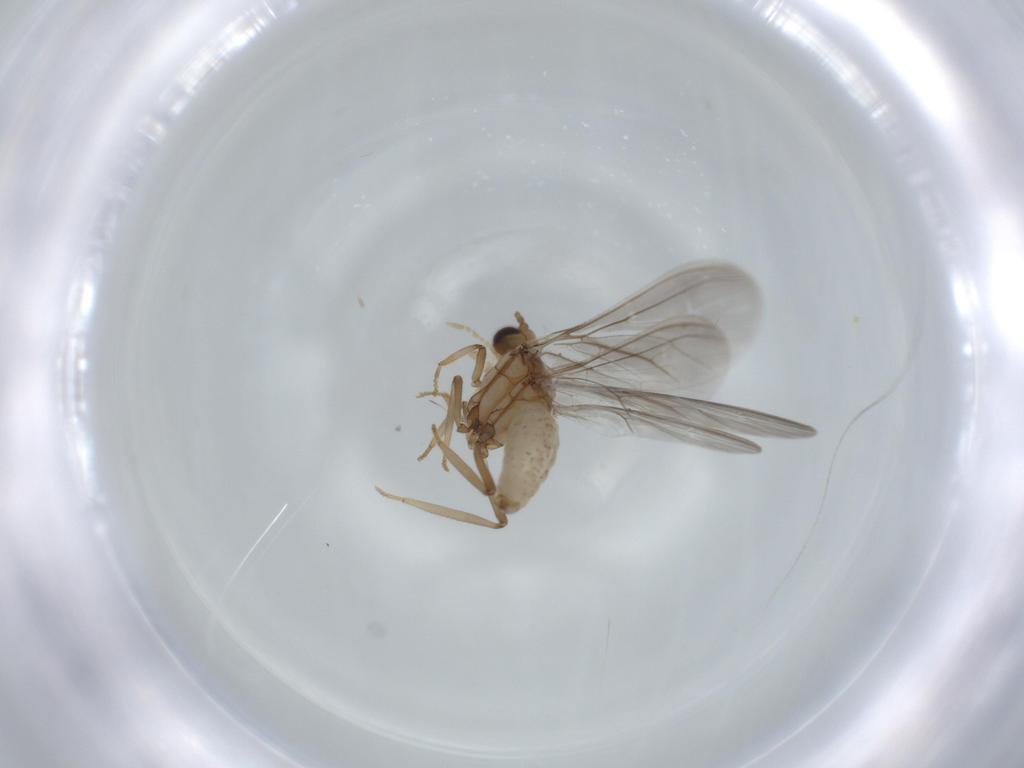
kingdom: Animalia
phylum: Arthropoda
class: Insecta
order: Neuroptera
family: Coniopterygidae
